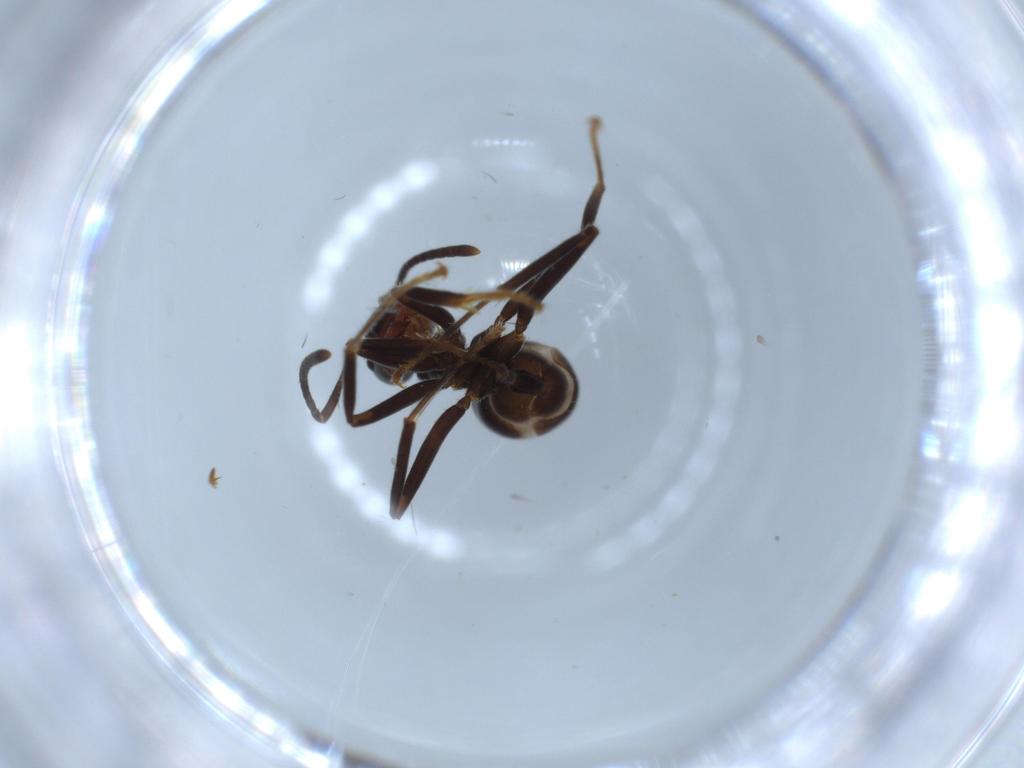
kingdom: Animalia
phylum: Arthropoda
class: Insecta
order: Hymenoptera
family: Formicidae
